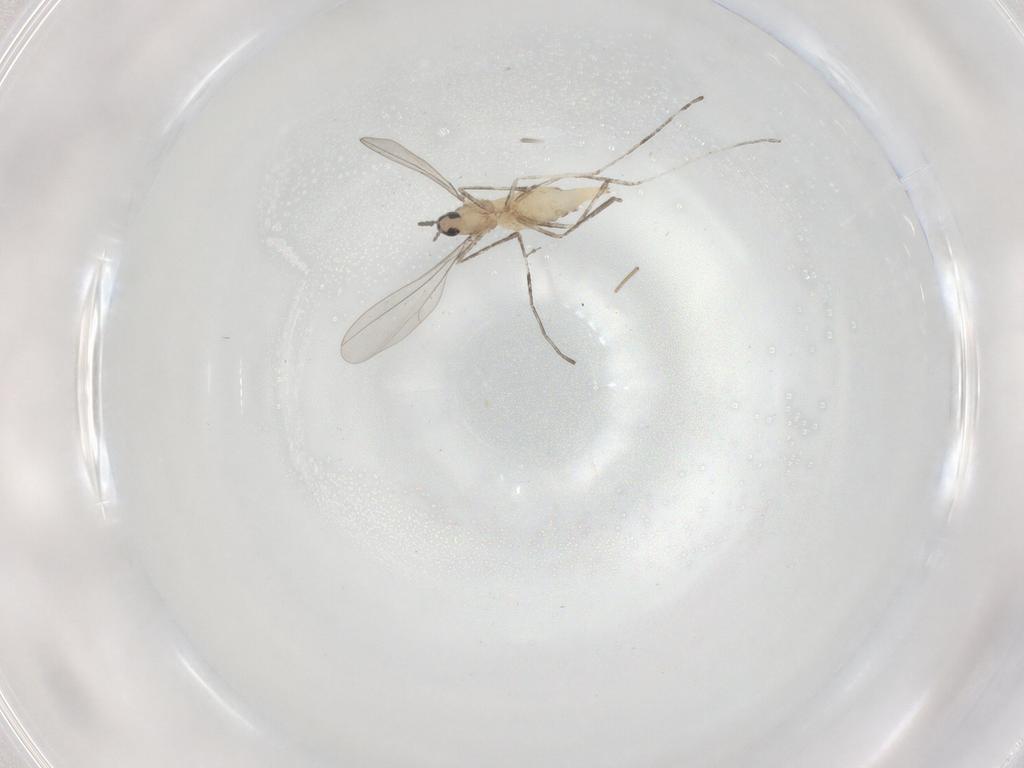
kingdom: Animalia
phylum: Arthropoda
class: Insecta
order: Diptera
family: Cecidomyiidae
